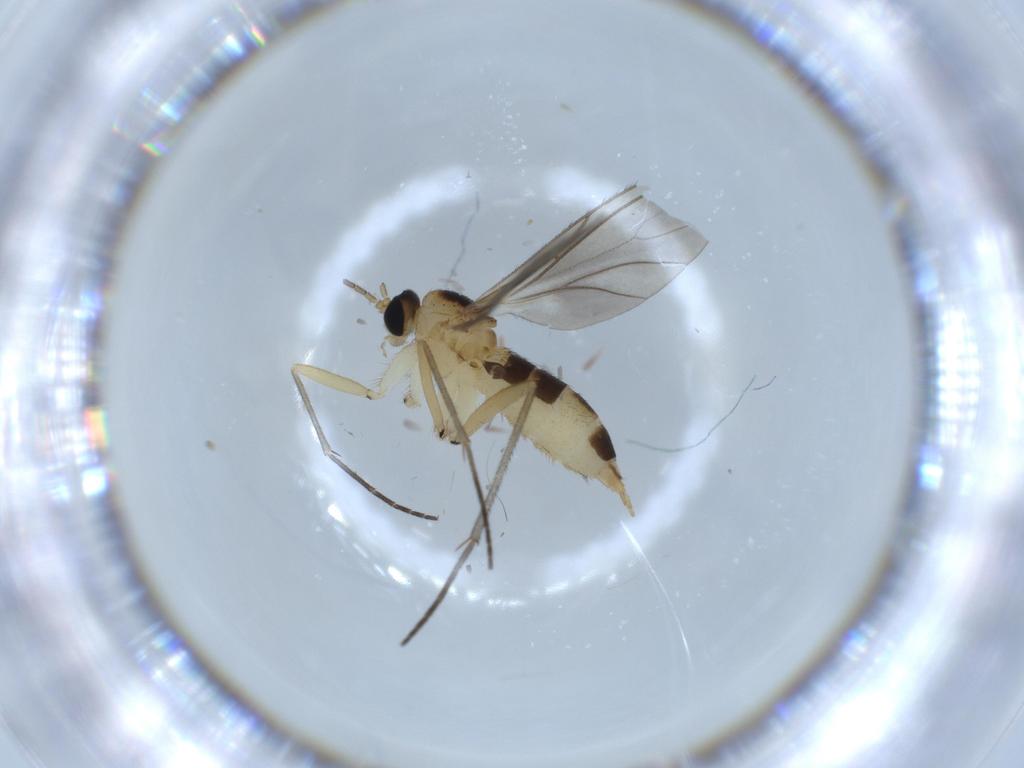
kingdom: Animalia
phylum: Arthropoda
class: Insecta
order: Diptera
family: Sciaridae
